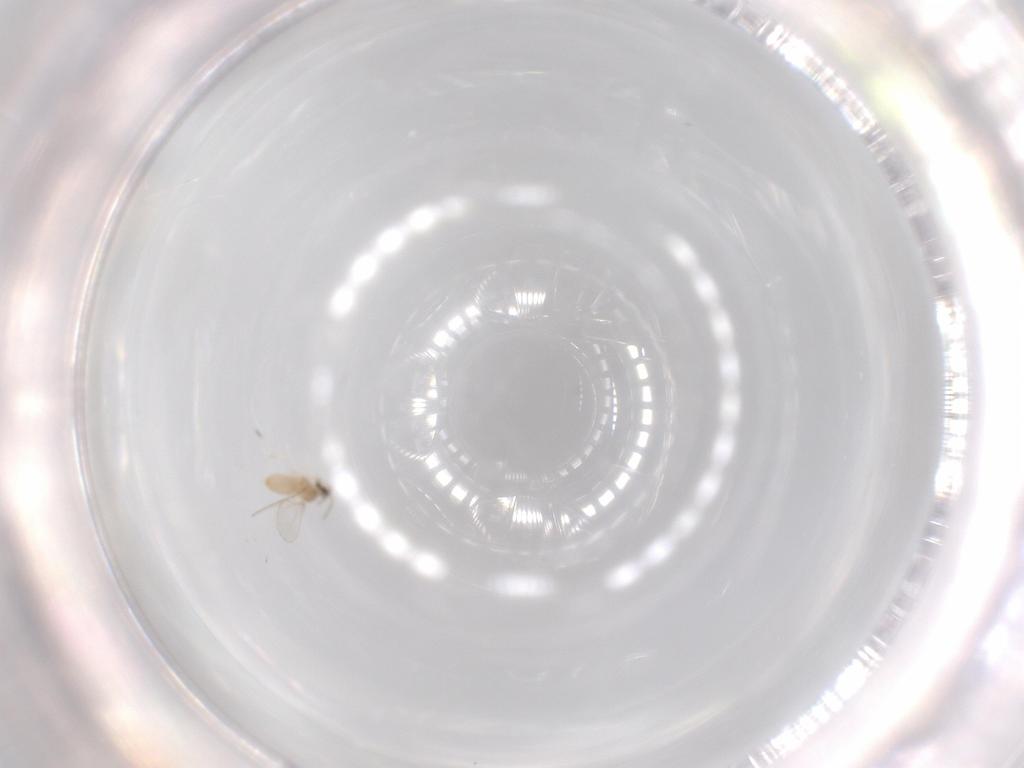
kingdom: Animalia
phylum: Arthropoda
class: Insecta
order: Diptera
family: Cecidomyiidae
